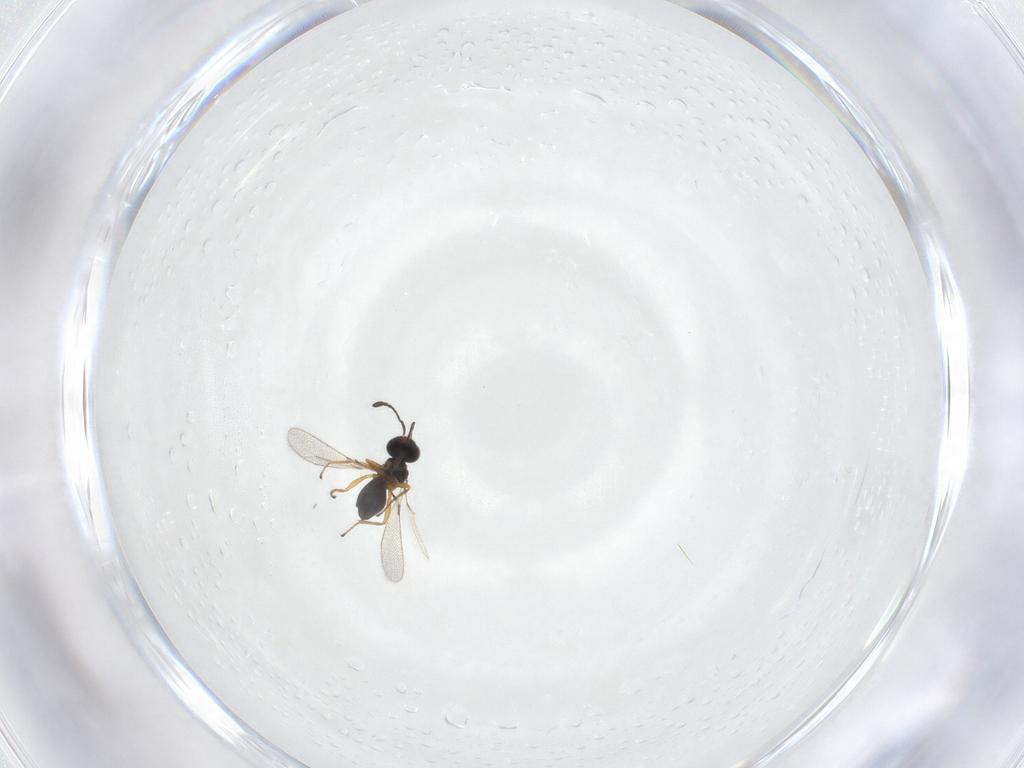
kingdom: Animalia
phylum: Arthropoda
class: Insecta
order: Hymenoptera
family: Mymaridae
